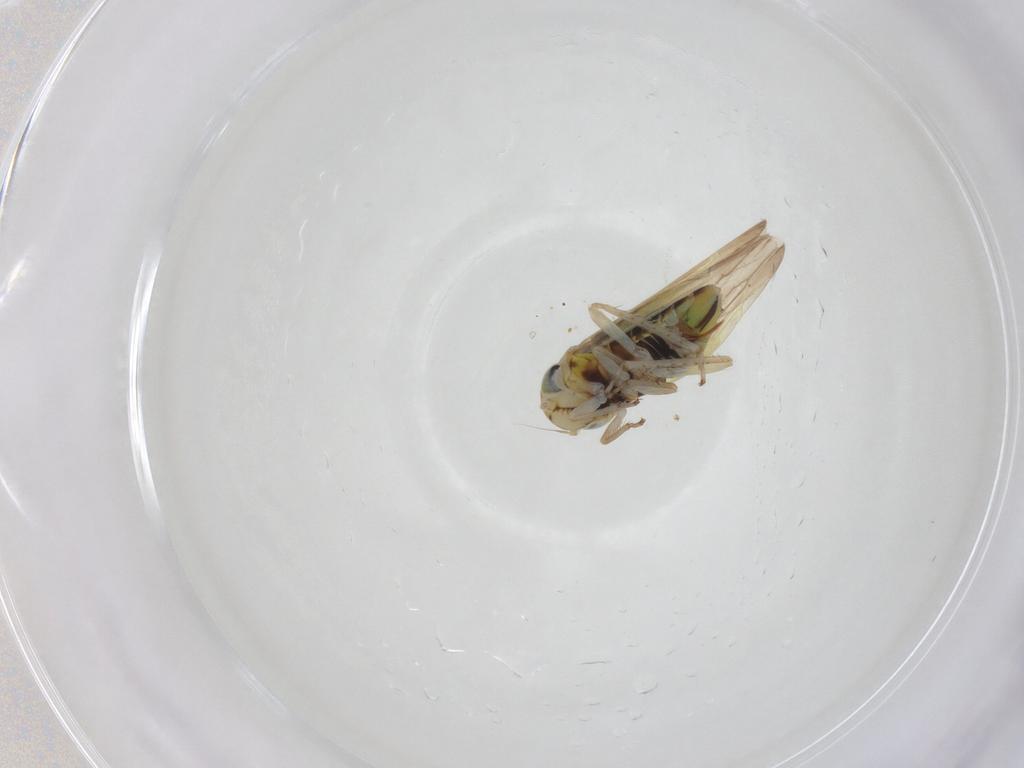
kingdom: Animalia
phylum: Arthropoda
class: Insecta
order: Hemiptera
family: Cicadellidae
